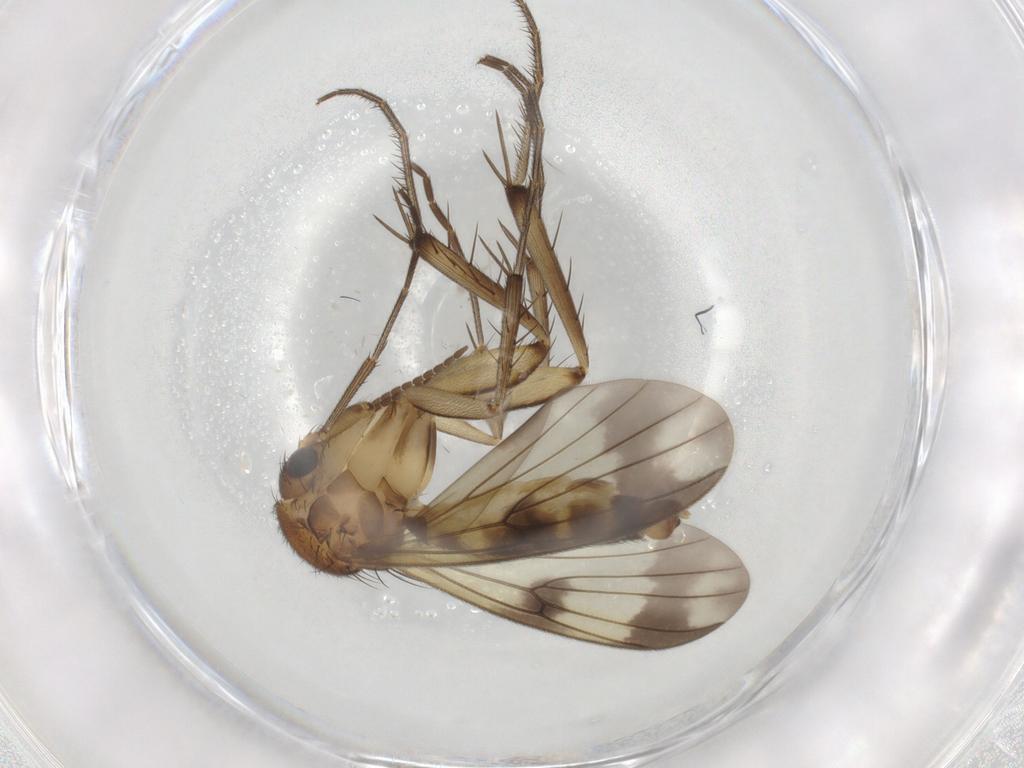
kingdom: Animalia
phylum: Arthropoda
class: Insecta
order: Diptera
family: Mycetophilidae
